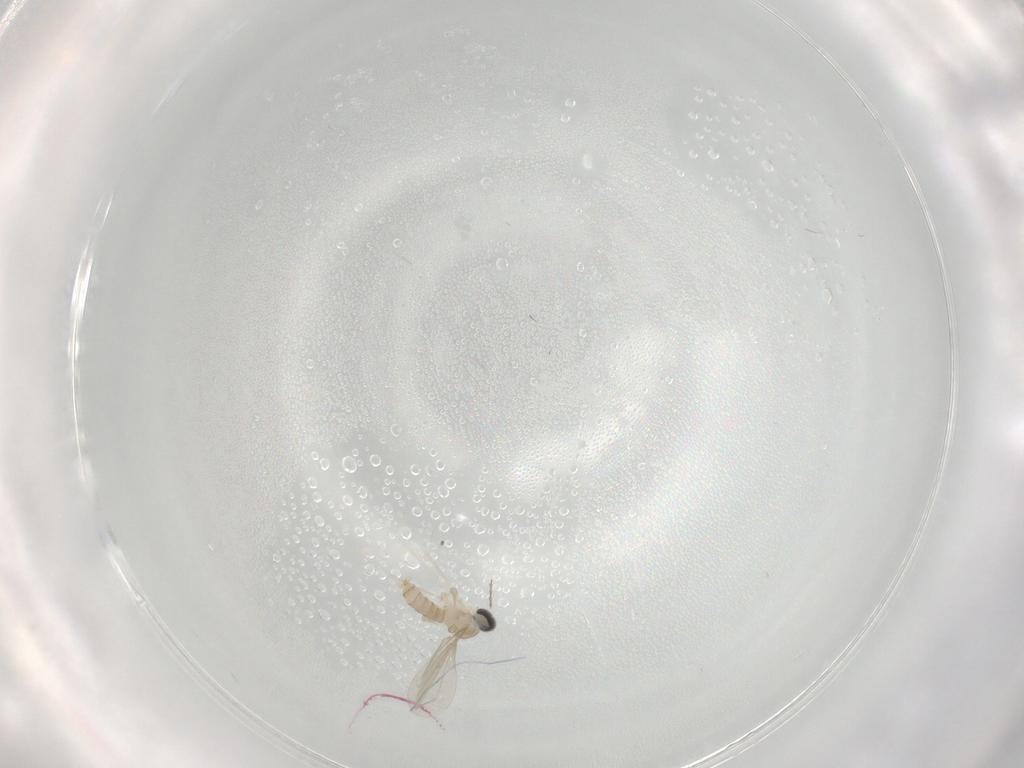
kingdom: Animalia
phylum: Arthropoda
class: Insecta
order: Diptera
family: Cecidomyiidae
